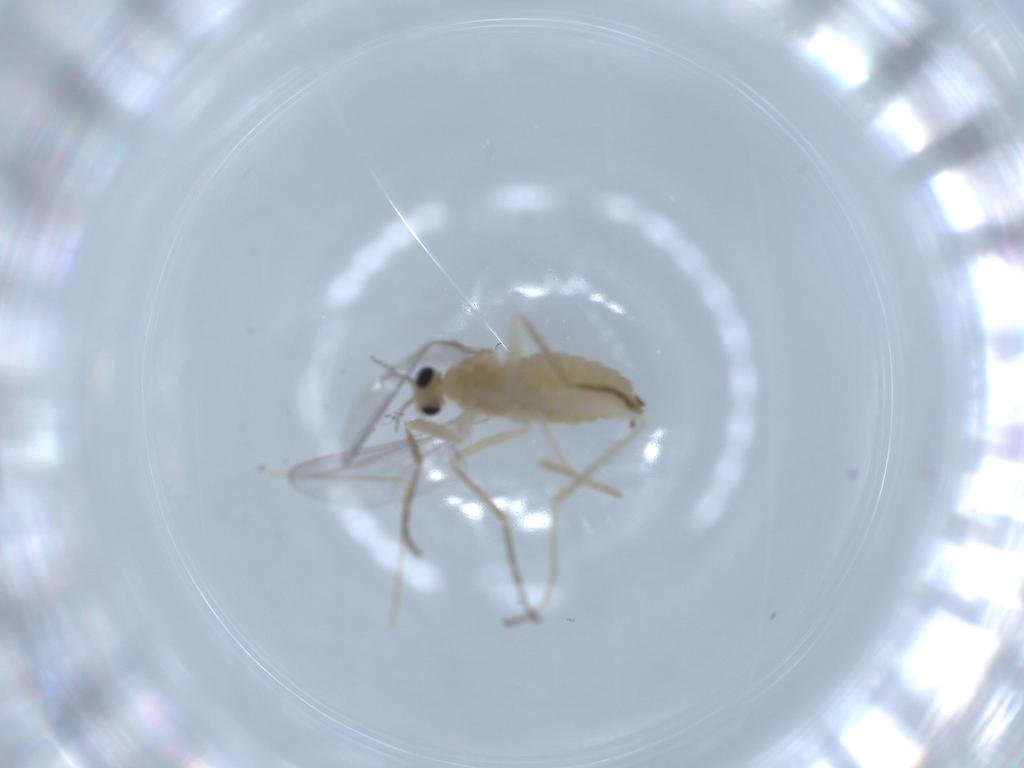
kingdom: Animalia
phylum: Arthropoda
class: Insecta
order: Diptera
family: Cecidomyiidae
